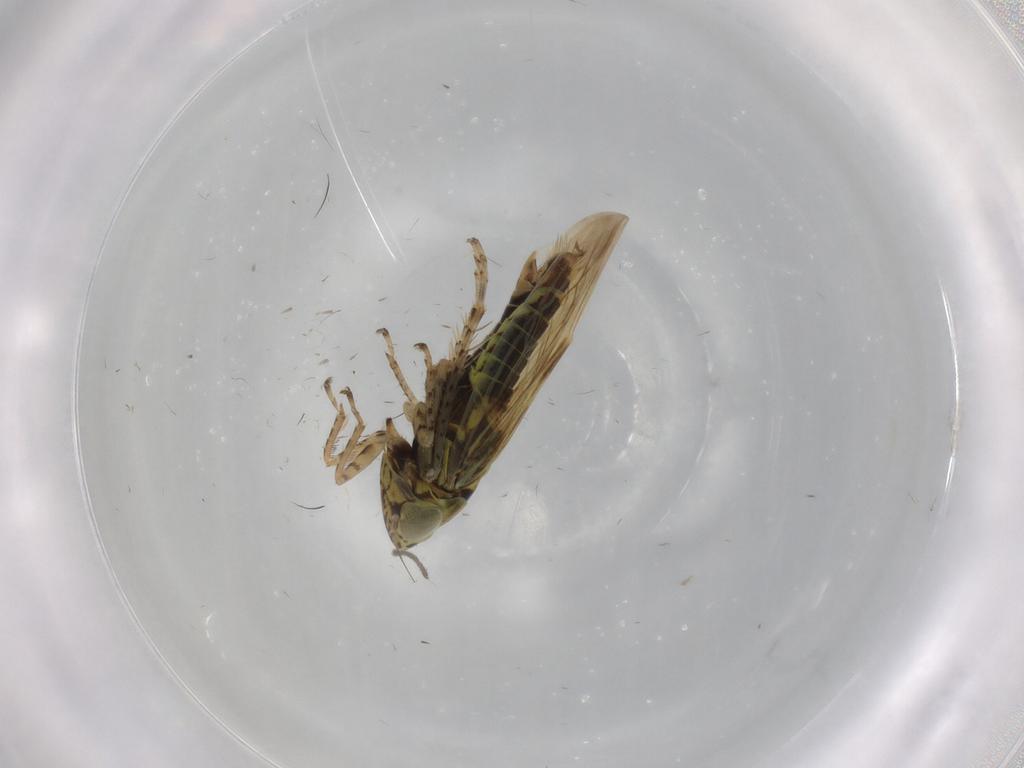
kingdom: Animalia
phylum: Arthropoda
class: Insecta
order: Hemiptera
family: Cicadellidae
